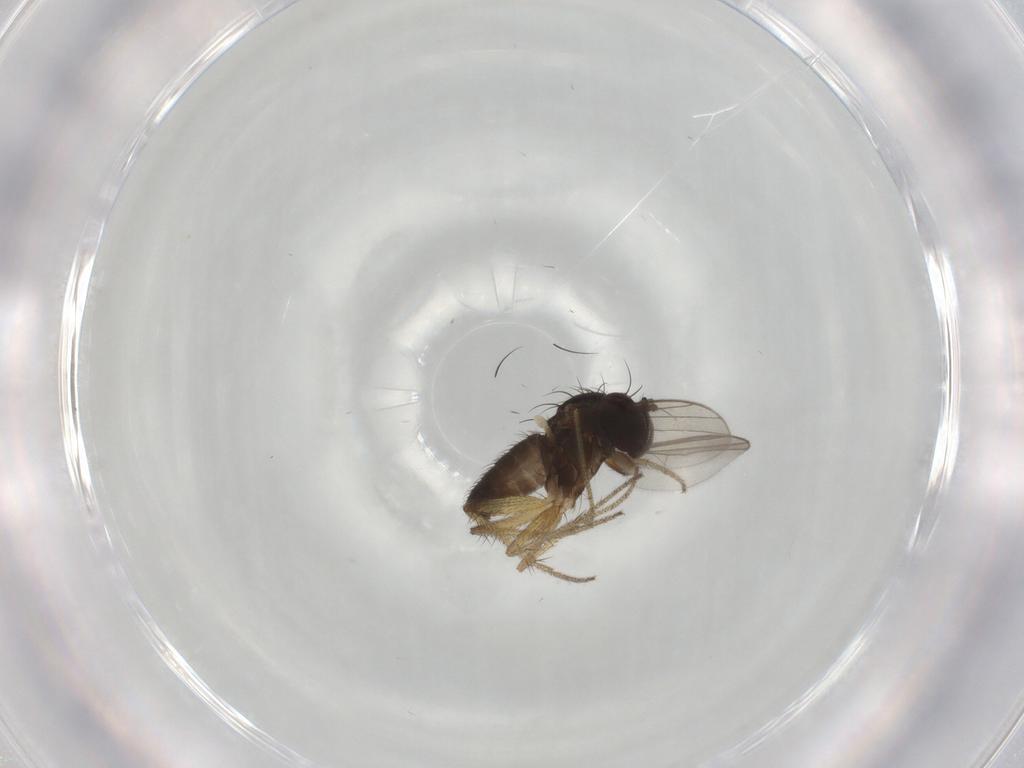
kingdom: Animalia
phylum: Arthropoda
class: Insecta
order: Diptera
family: Dolichopodidae
